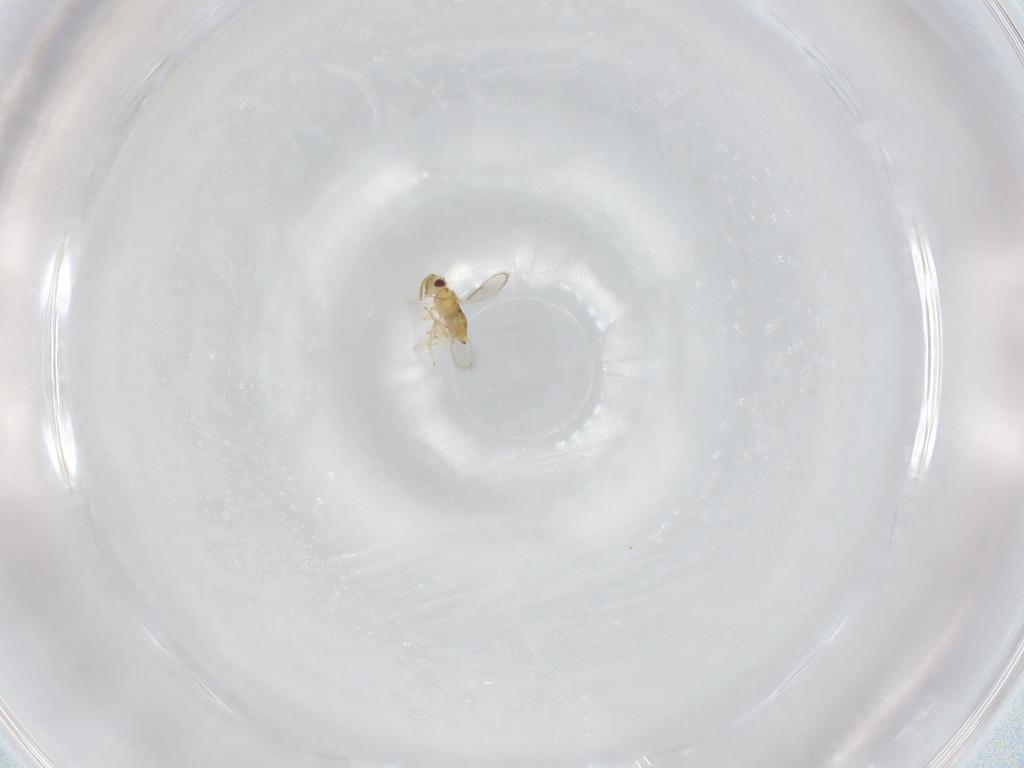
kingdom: Animalia
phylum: Arthropoda
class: Insecta
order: Hymenoptera
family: Aphelinidae
